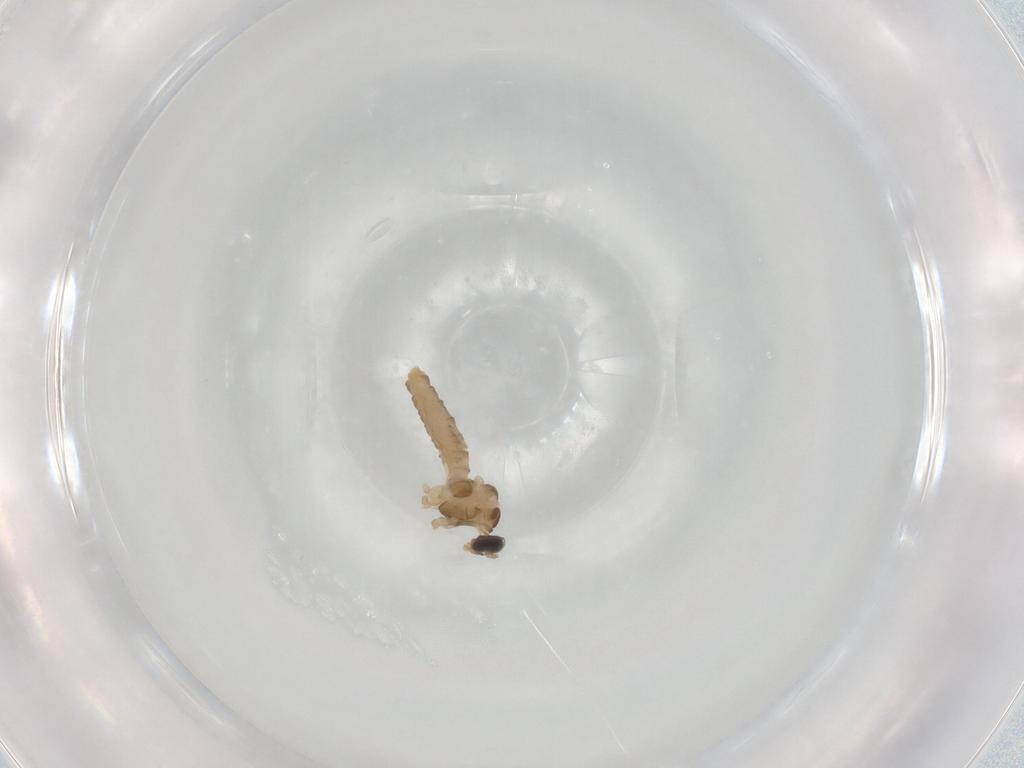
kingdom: Animalia
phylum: Arthropoda
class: Insecta
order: Diptera
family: Cecidomyiidae
